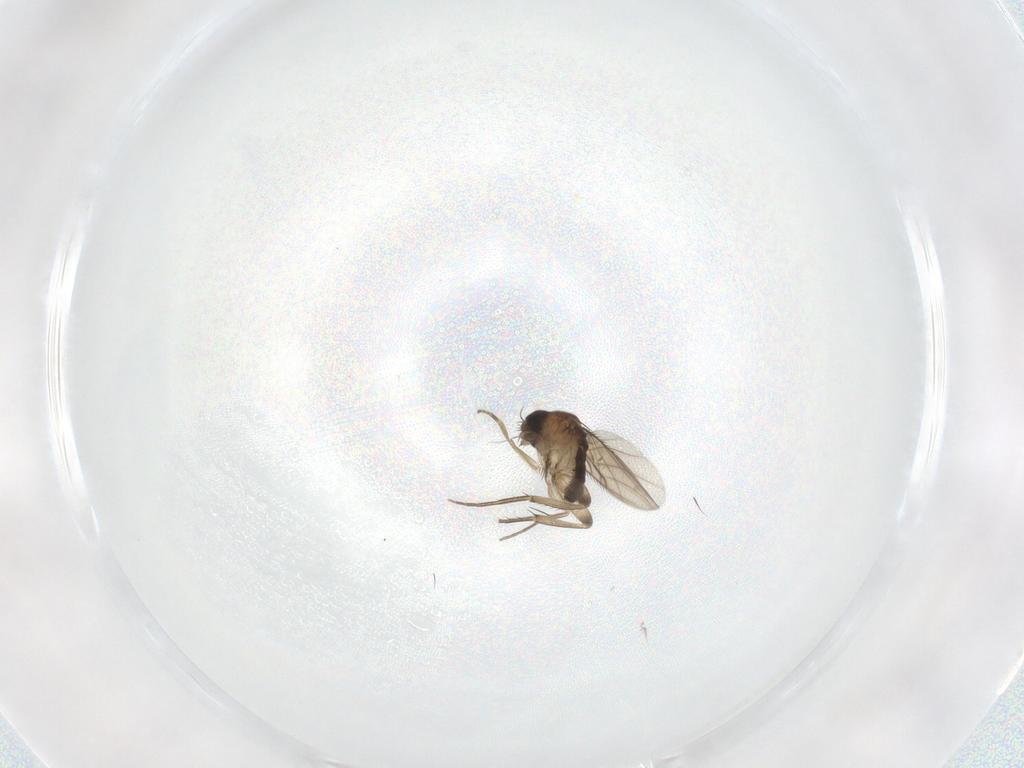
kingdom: Animalia
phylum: Arthropoda
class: Insecta
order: Diptera
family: Phoridae
